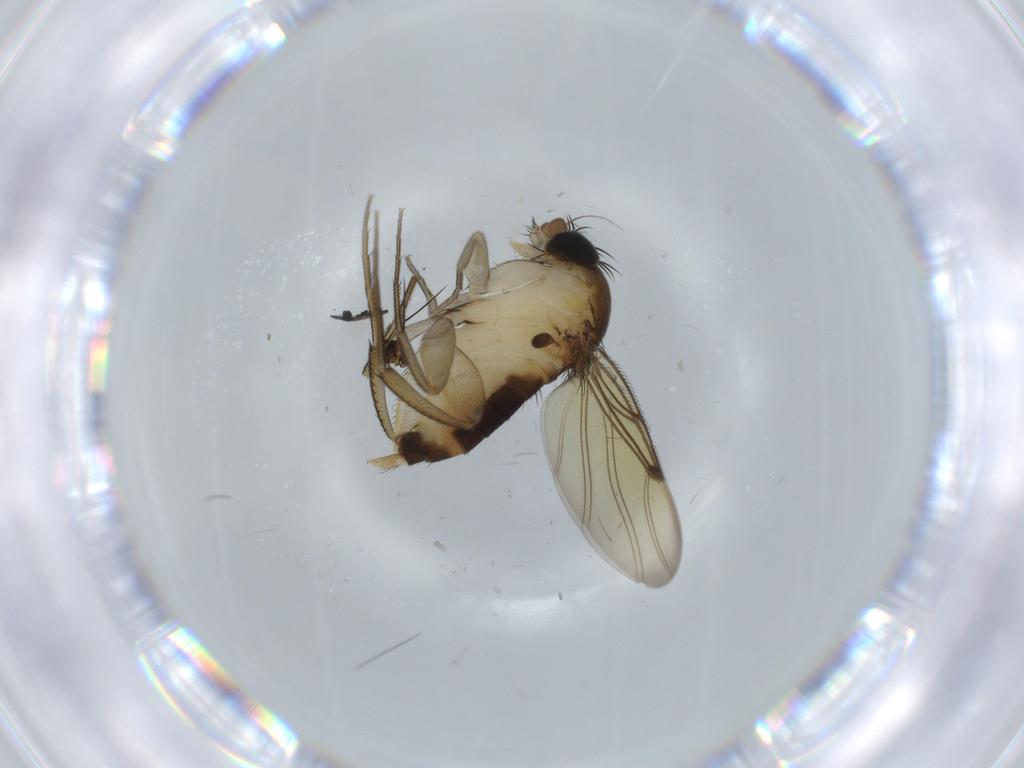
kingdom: Animalia
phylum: Arthropoda
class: Insecta
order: Diptera
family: Phoridae
